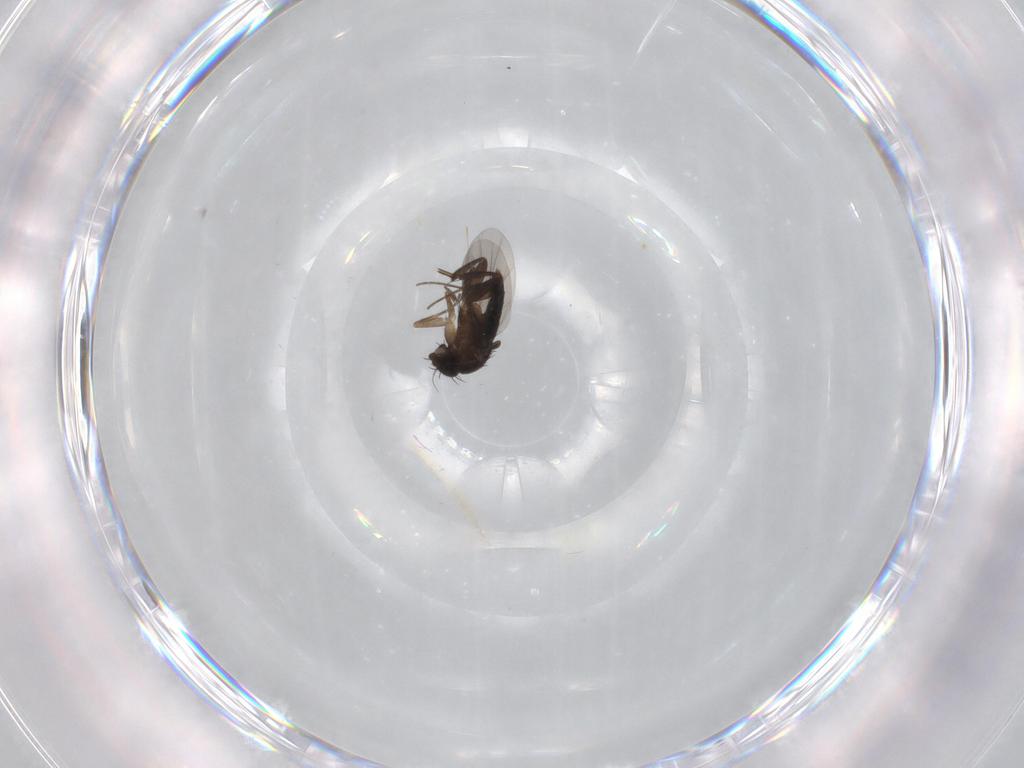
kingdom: Animalia
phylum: Arthropoda
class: Insecta
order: Diptera
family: Phoridae
